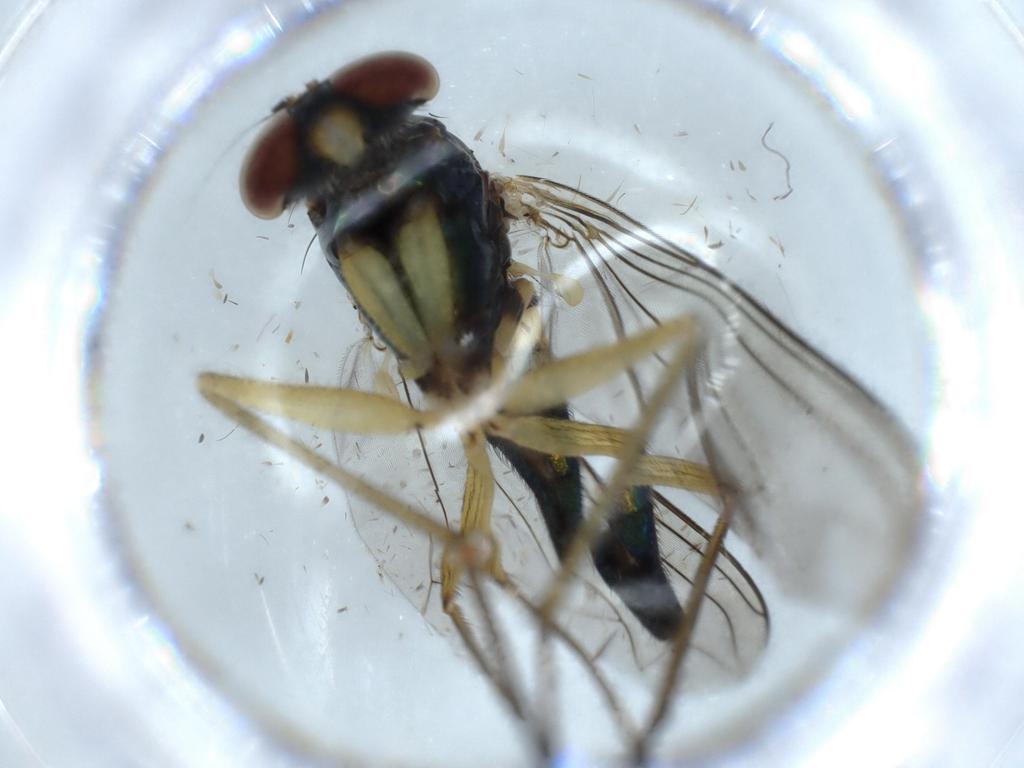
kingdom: Animalia
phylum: Arthropoda
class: Insecta
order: Diptera
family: Dolichopodidae
